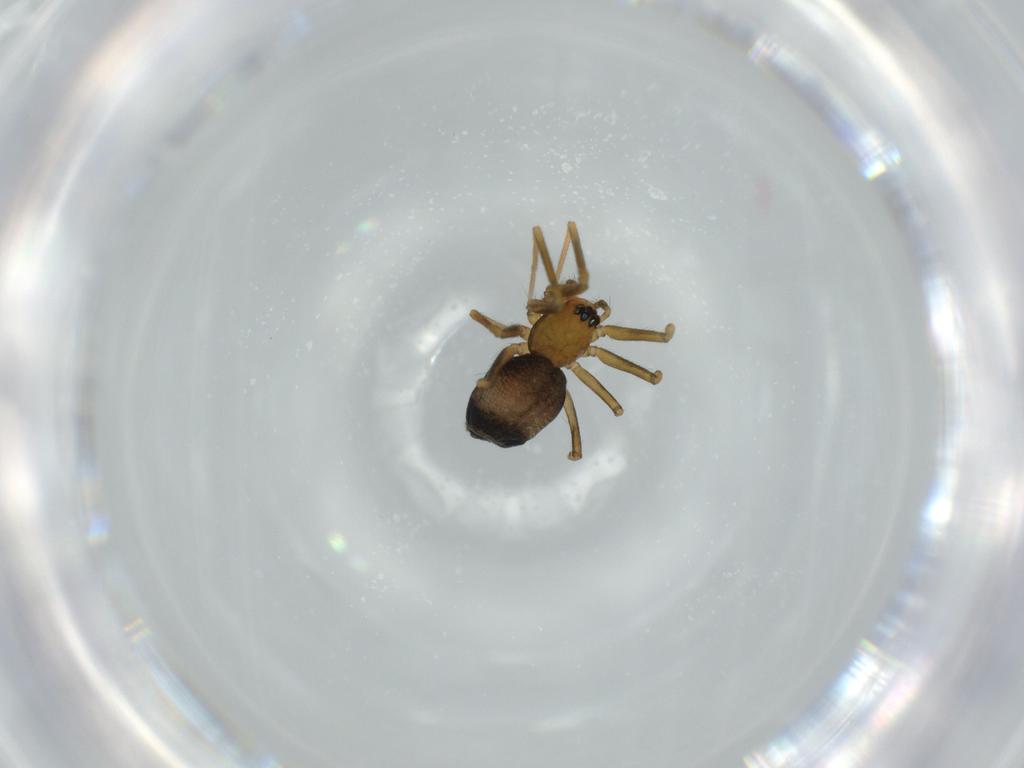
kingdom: Animalia
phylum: Arthropoda
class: Arachnida
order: Araneae
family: Linyphiidae
